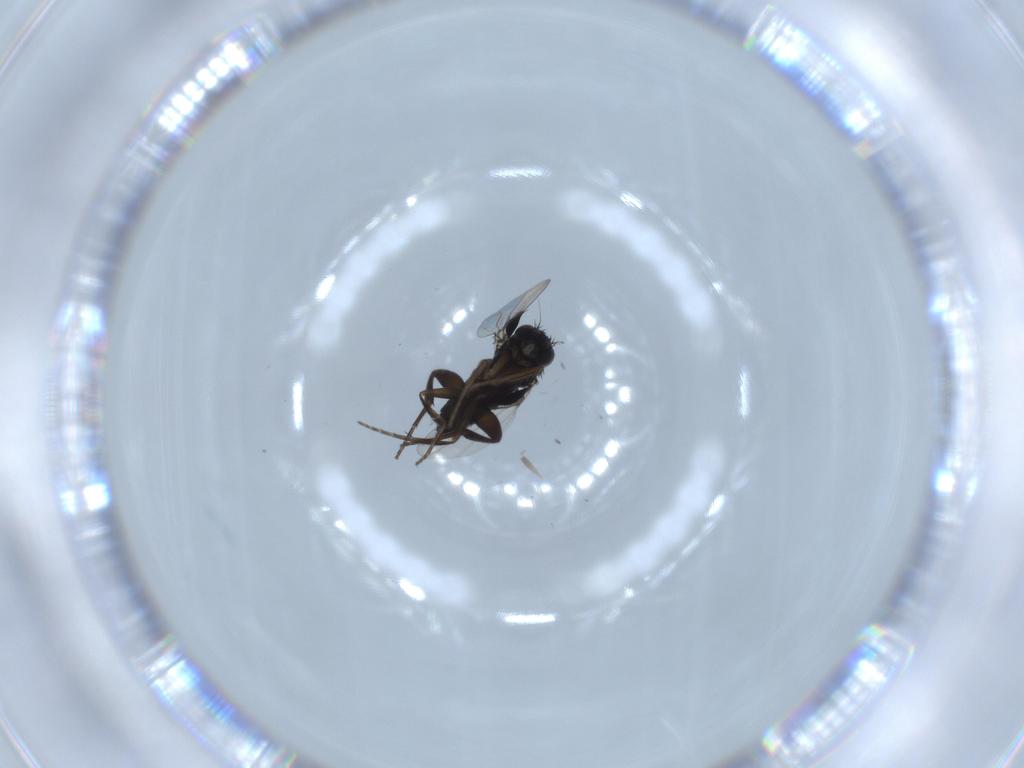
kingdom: Animalia
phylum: Arthropoda
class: Insecta
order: Diptera
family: Phoridae
